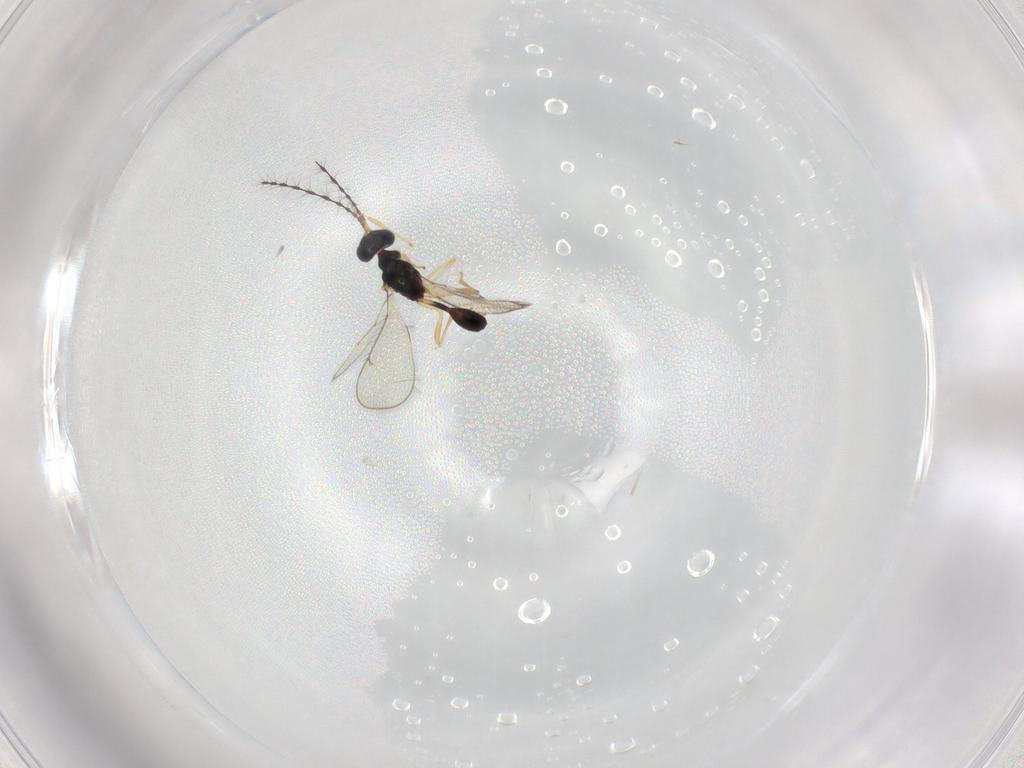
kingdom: Animalia
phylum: Arthropoda
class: Insecta
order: Hymenoptera
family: Diparidae
